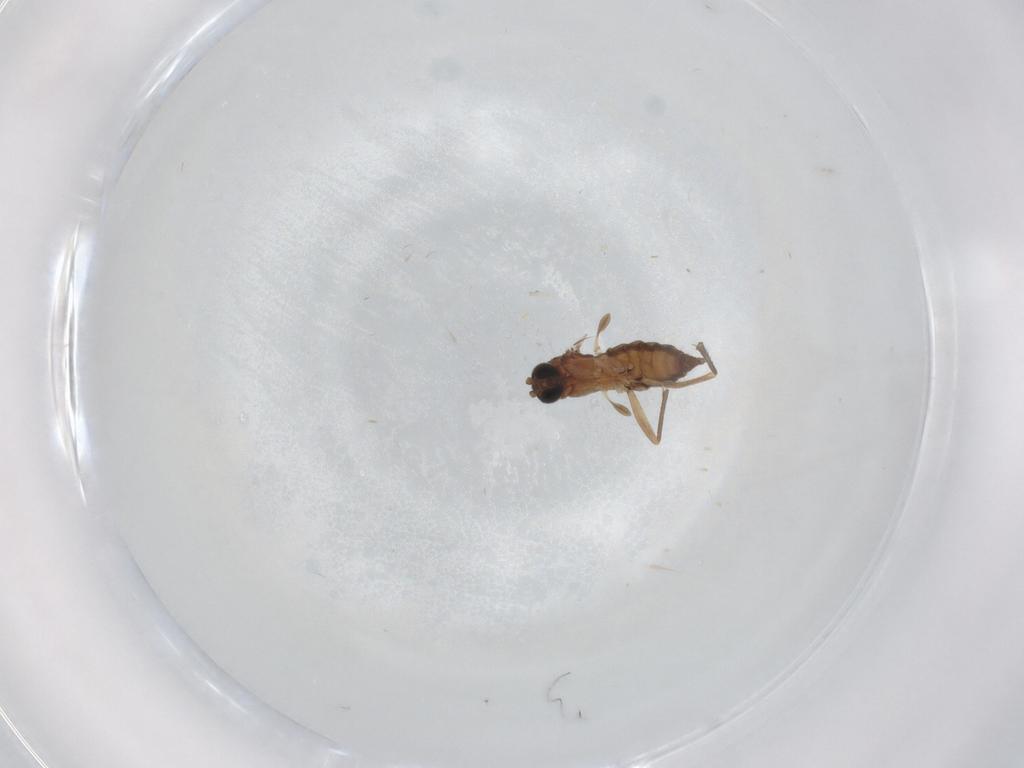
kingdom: Animalia
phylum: Arthropoda
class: Insecta
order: Diptera
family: Sciaridae
